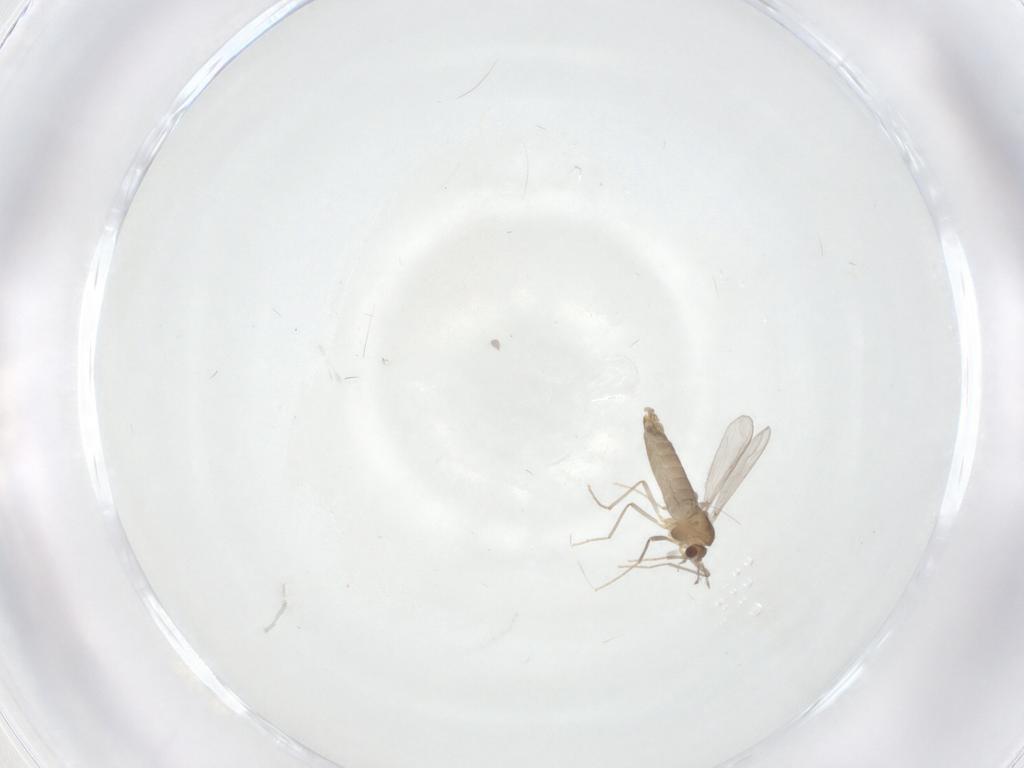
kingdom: Animalia
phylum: Arthropoda
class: Insecta
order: Diptera
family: Chironomidae
